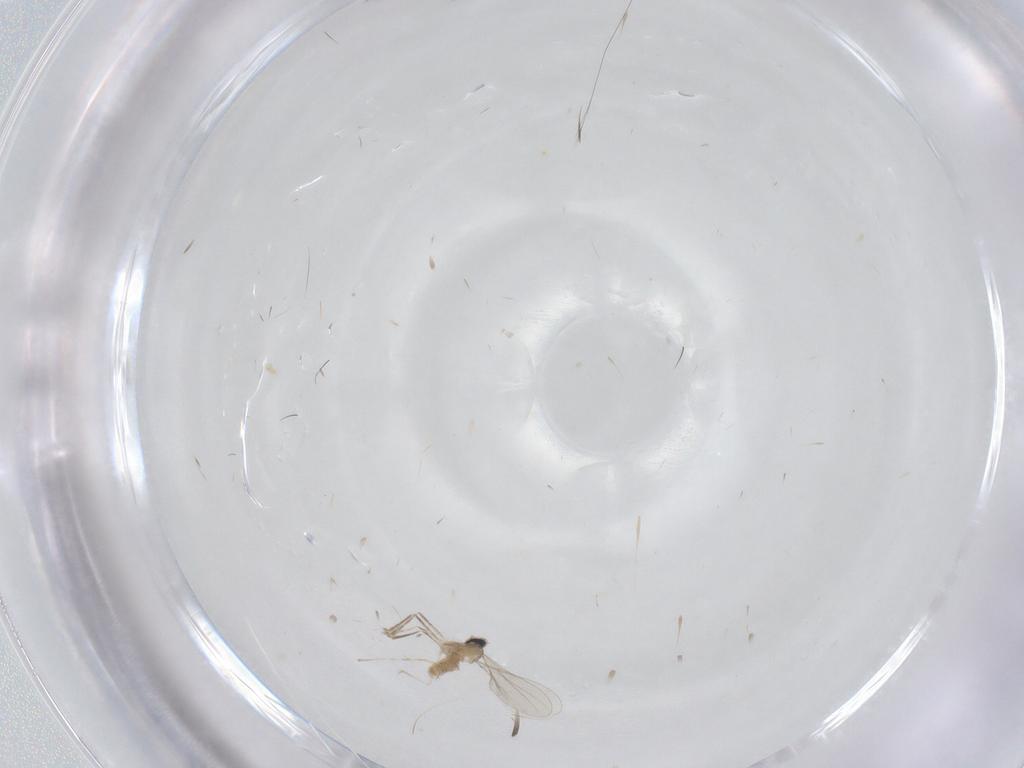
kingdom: Animalia
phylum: Arthropoda
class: Insecta
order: Diptera
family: Cecidomyiidae
